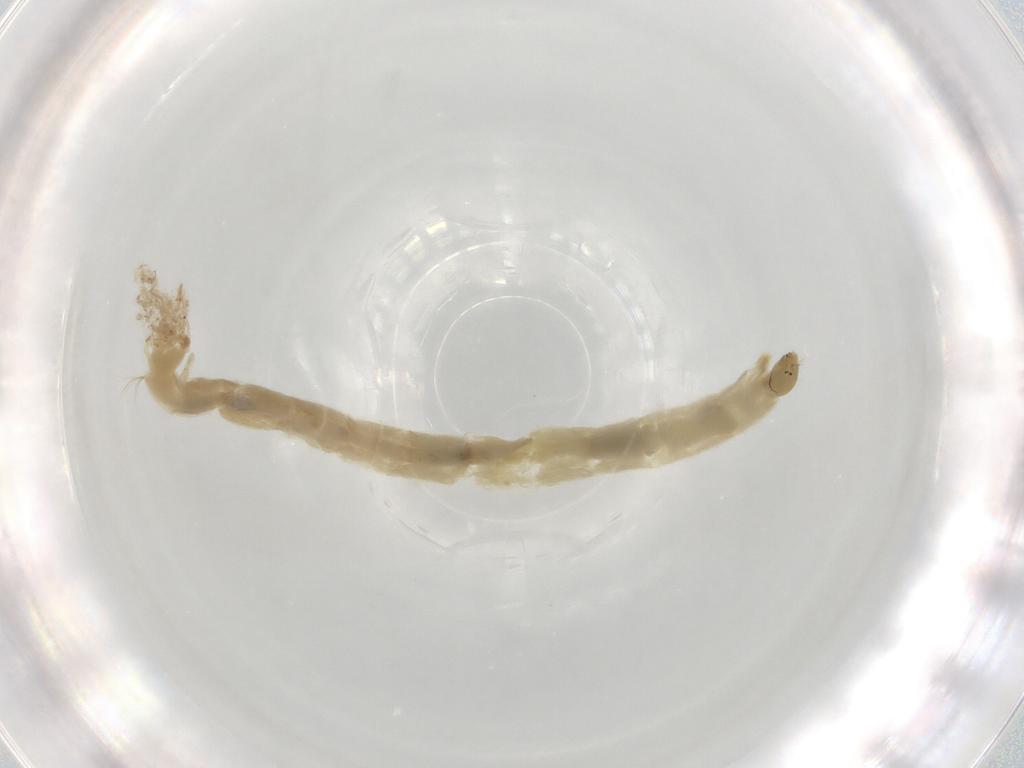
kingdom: Animalia
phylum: Arthropoda
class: Insecta
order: Diptera
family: Chironomidae
